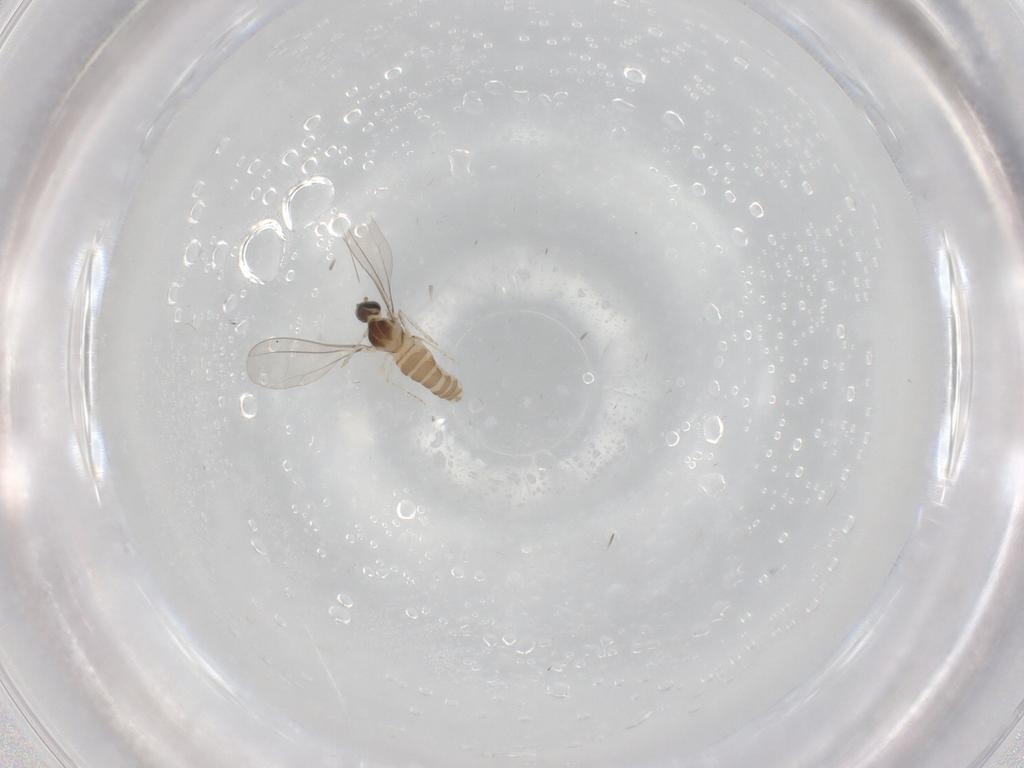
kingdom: Animalia
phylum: Arthropoda
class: Insecta
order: Diptera
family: Cecidomyiidae
